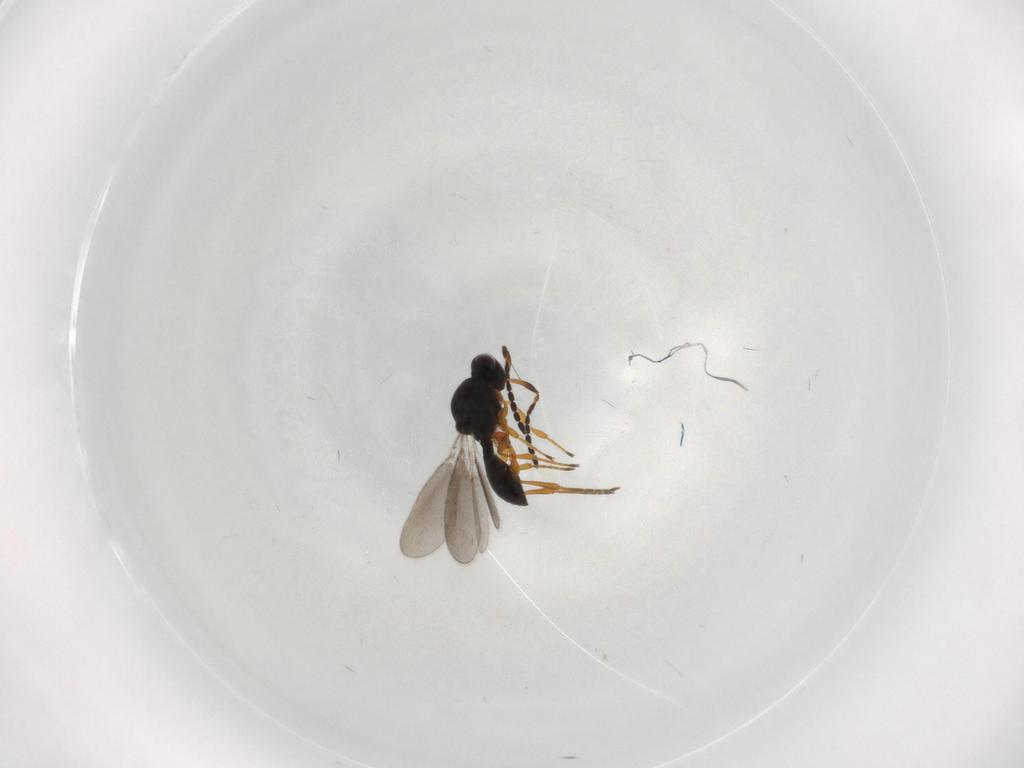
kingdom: Animalia
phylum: Arthropoda
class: Insecta
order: Hymenoptera
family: Platygastridae
